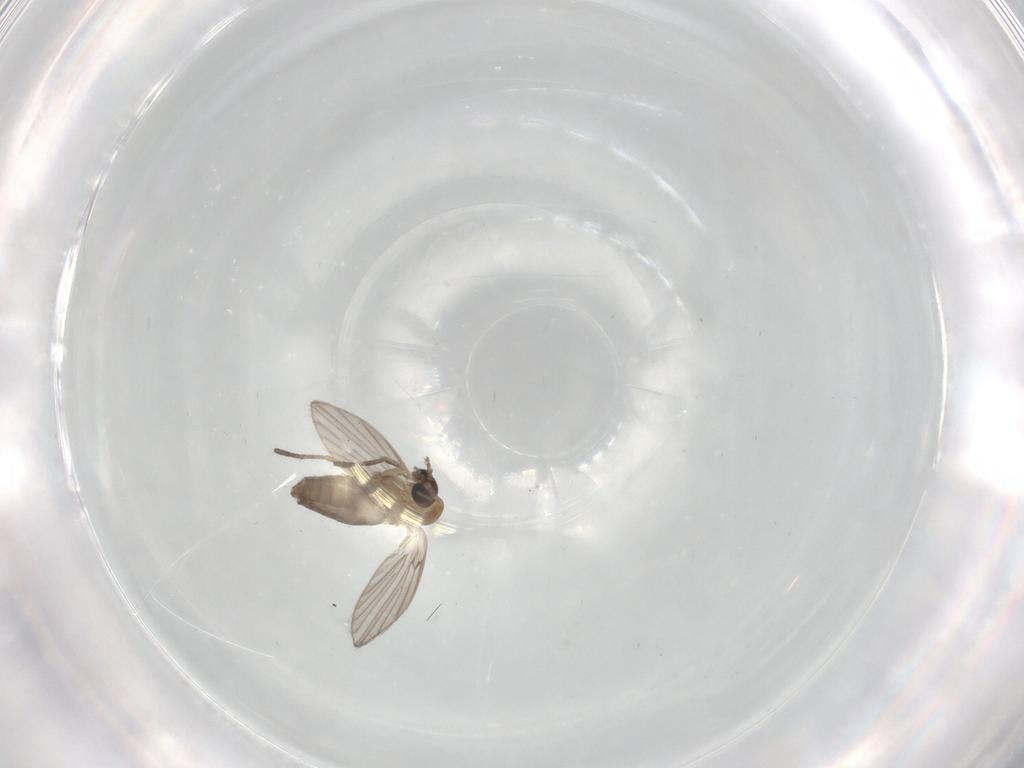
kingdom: Animalia
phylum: Arthropoda
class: Insecta
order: Diptera
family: Psychodidae
